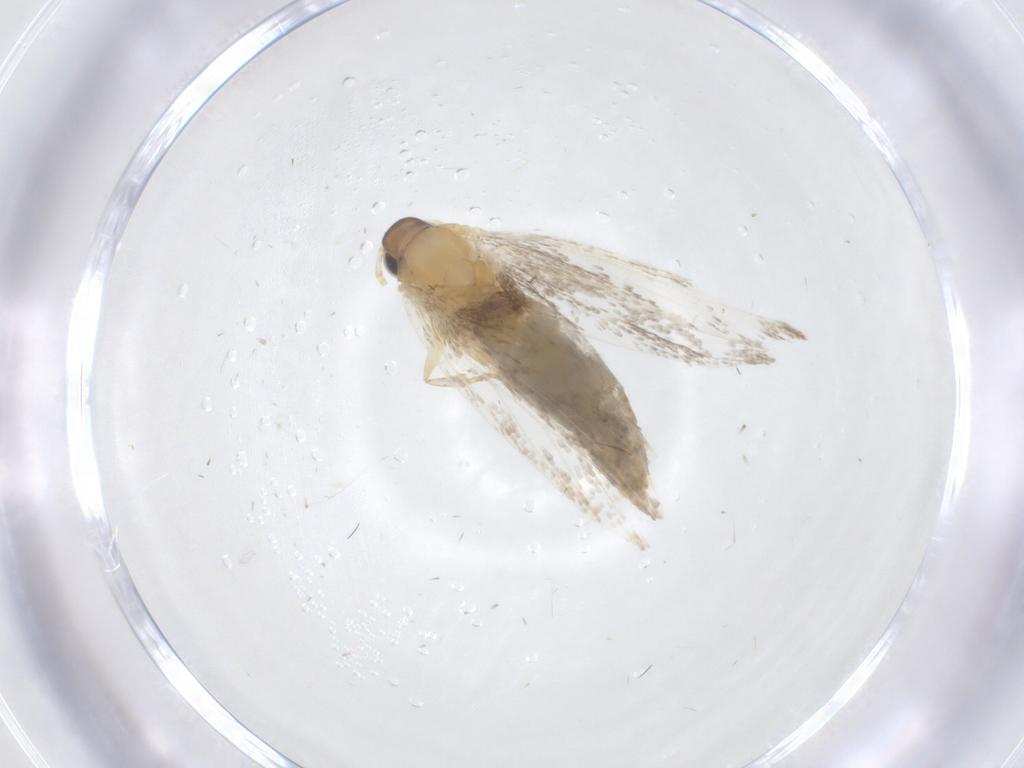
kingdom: Animalia
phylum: Arthropoda
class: Insecta
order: Lepidoptera
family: Oecophoridae
